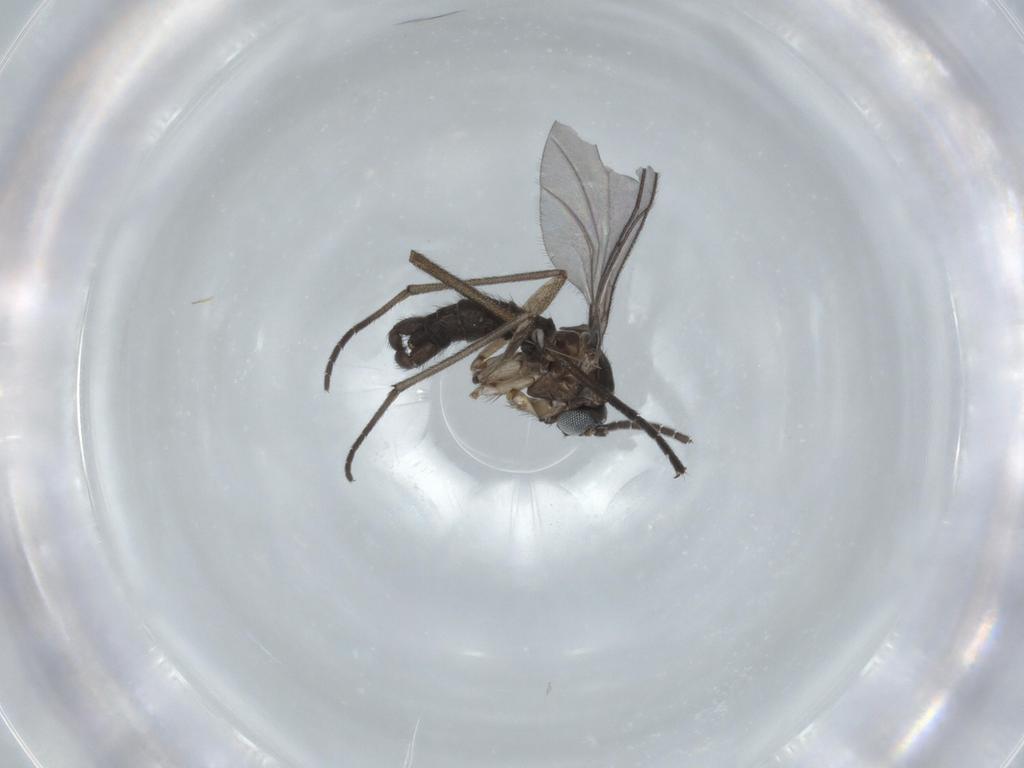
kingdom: Animalia
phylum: Arthropoda
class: Insecta
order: Diptera
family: Sciaridae
